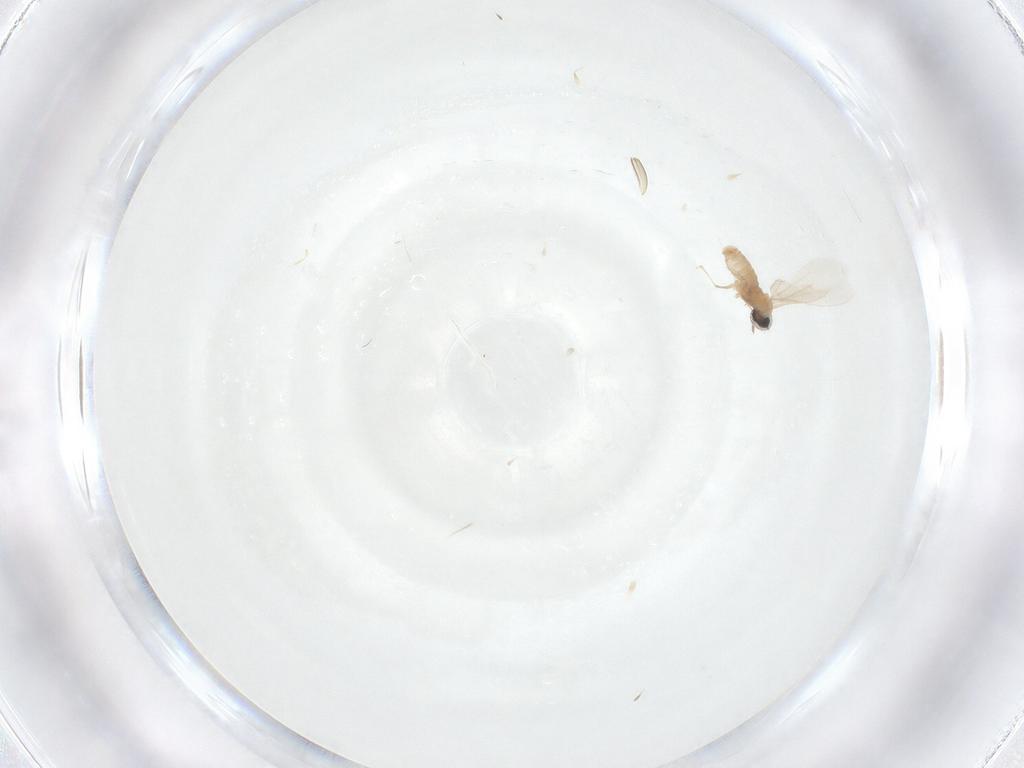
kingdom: Animalia
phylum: Arthropoda
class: Insecta
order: Diptera
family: Cecidomyiidae
